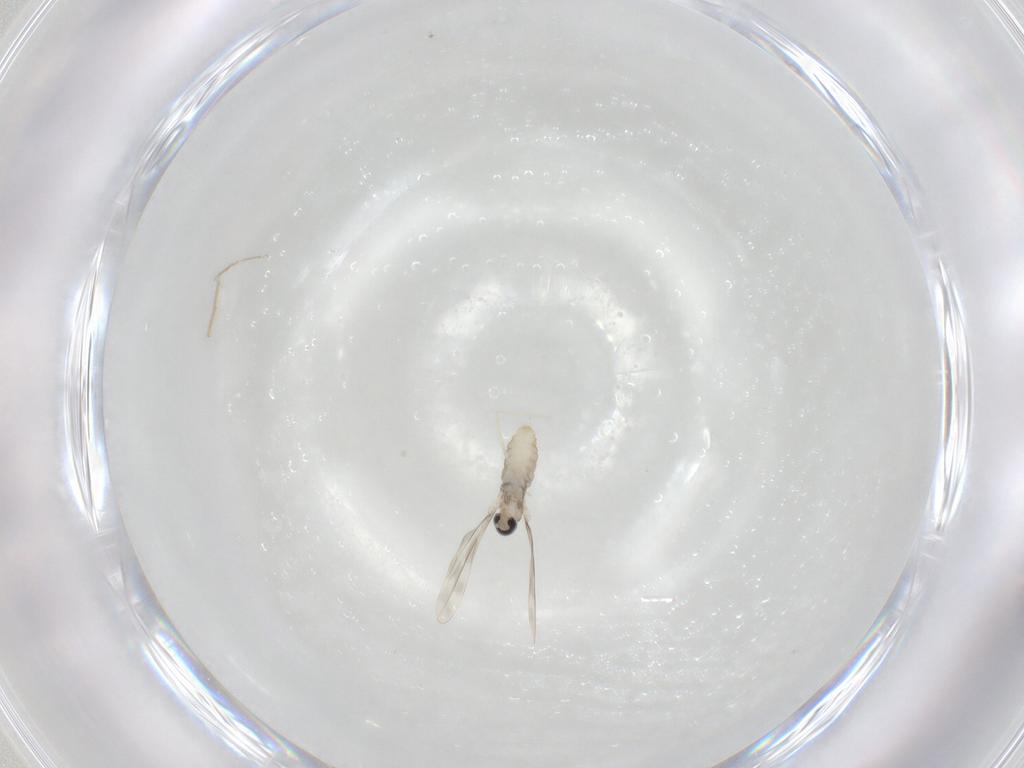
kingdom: Animalia
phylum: Arthropoda
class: Insecta
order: Diptera
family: Cecidomyiidae
